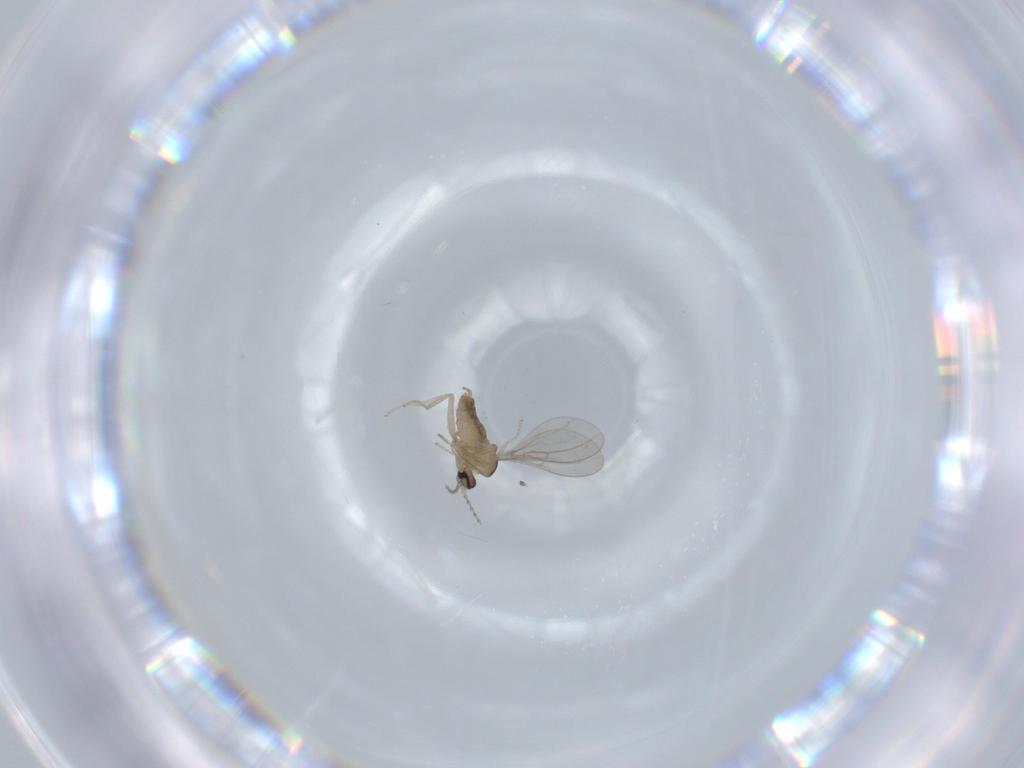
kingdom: Animalia
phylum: Arthropoda
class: Insecta
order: Diptera
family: Cecidomyiidae
